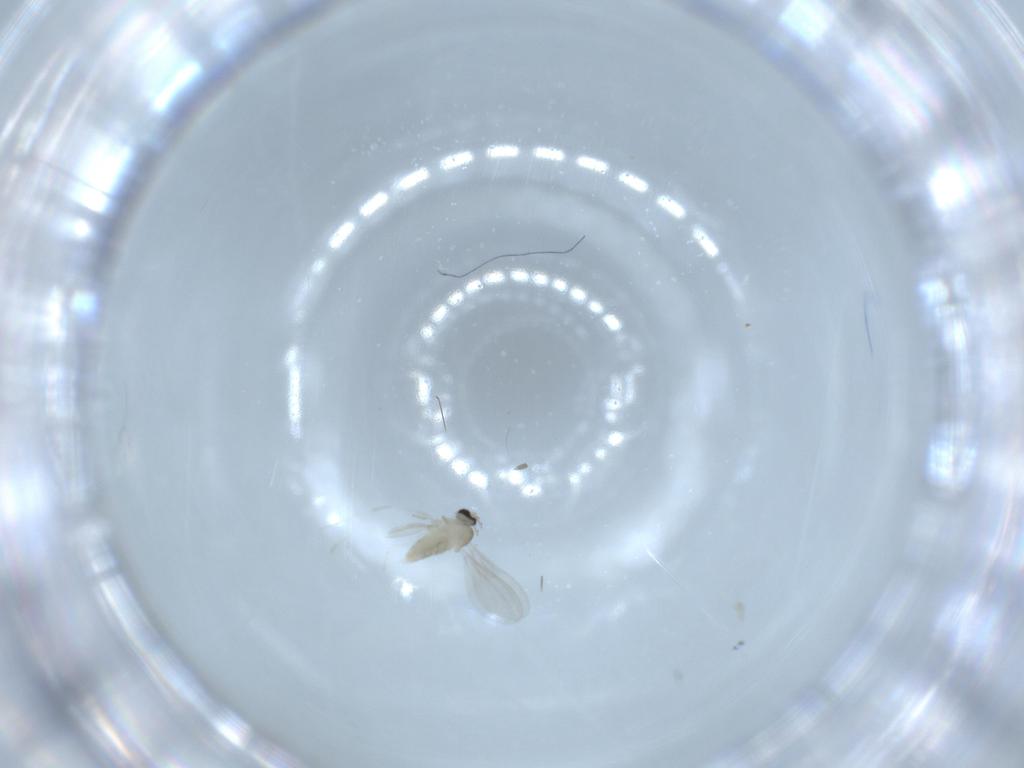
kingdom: Animalia
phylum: Arthropoda
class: Insecta
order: Diptera
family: Cecidomyiidae
